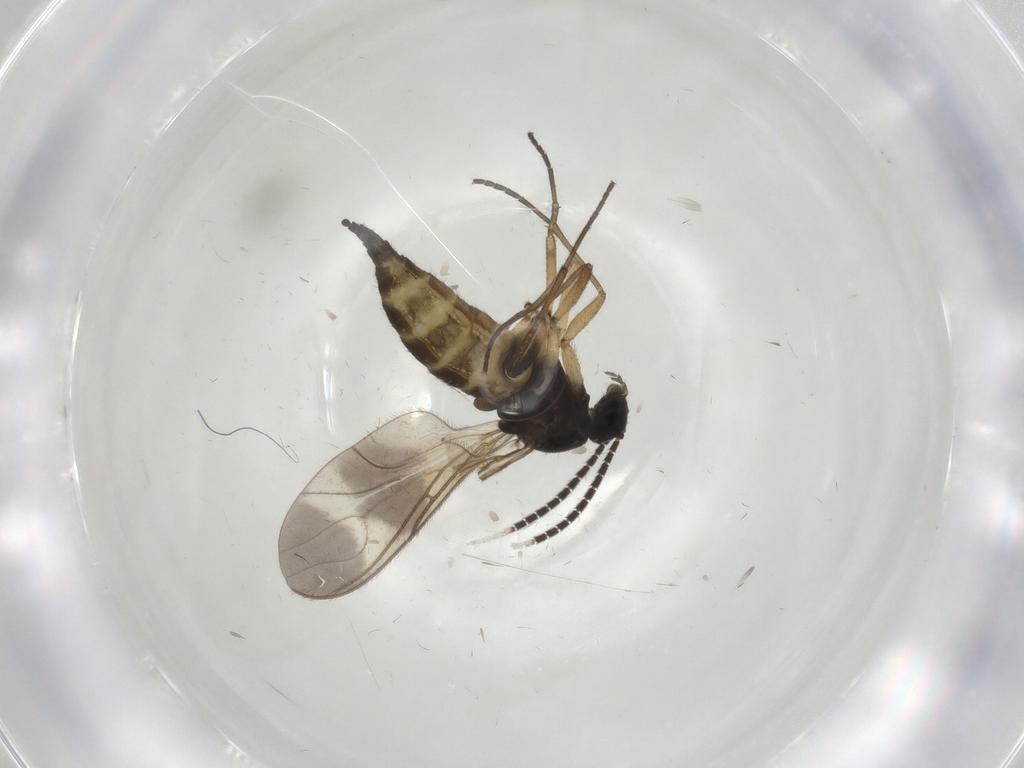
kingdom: Animalia
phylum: Arthropoda
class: Insecta
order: Diptera
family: Sciaridae
